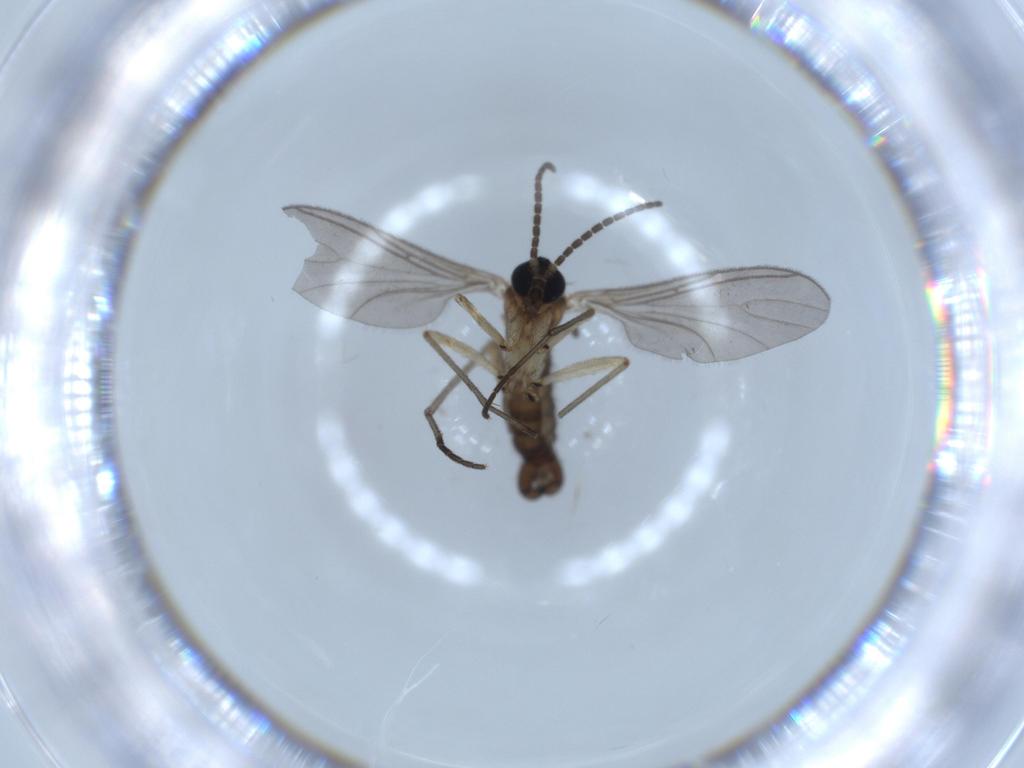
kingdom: Animalia
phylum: Arthropoda
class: Insecta
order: Diptera
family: Sciaridae
